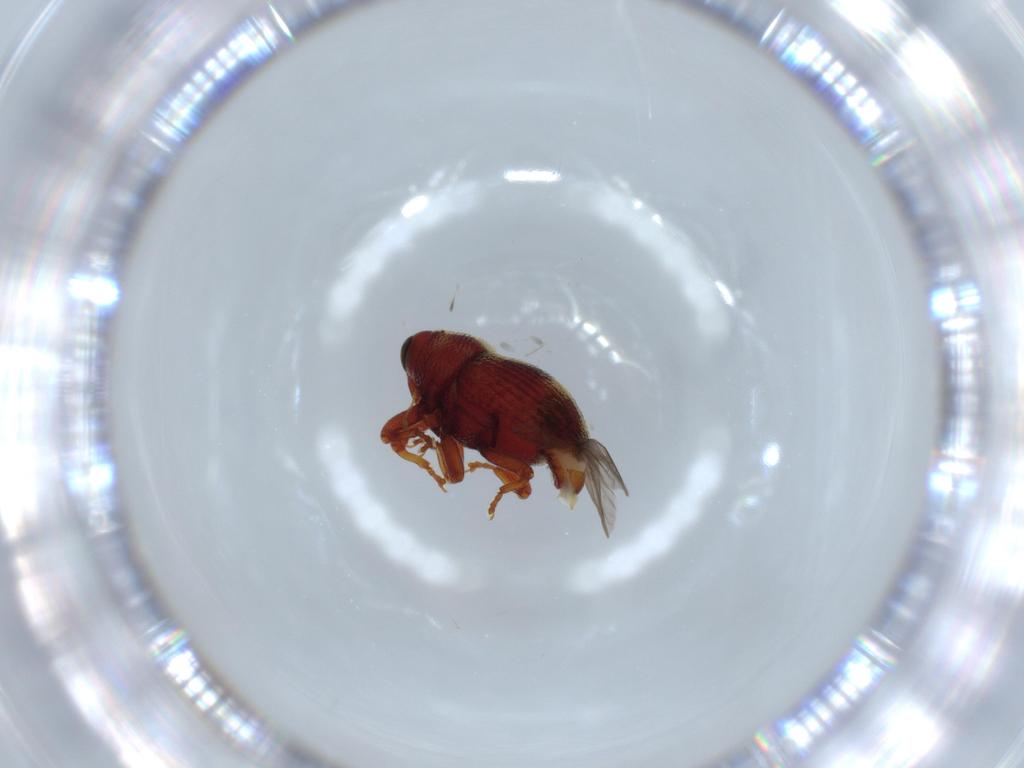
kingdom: Animalia
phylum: Arthropoda
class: Insecta
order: Coleoptera
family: Curculionidae
